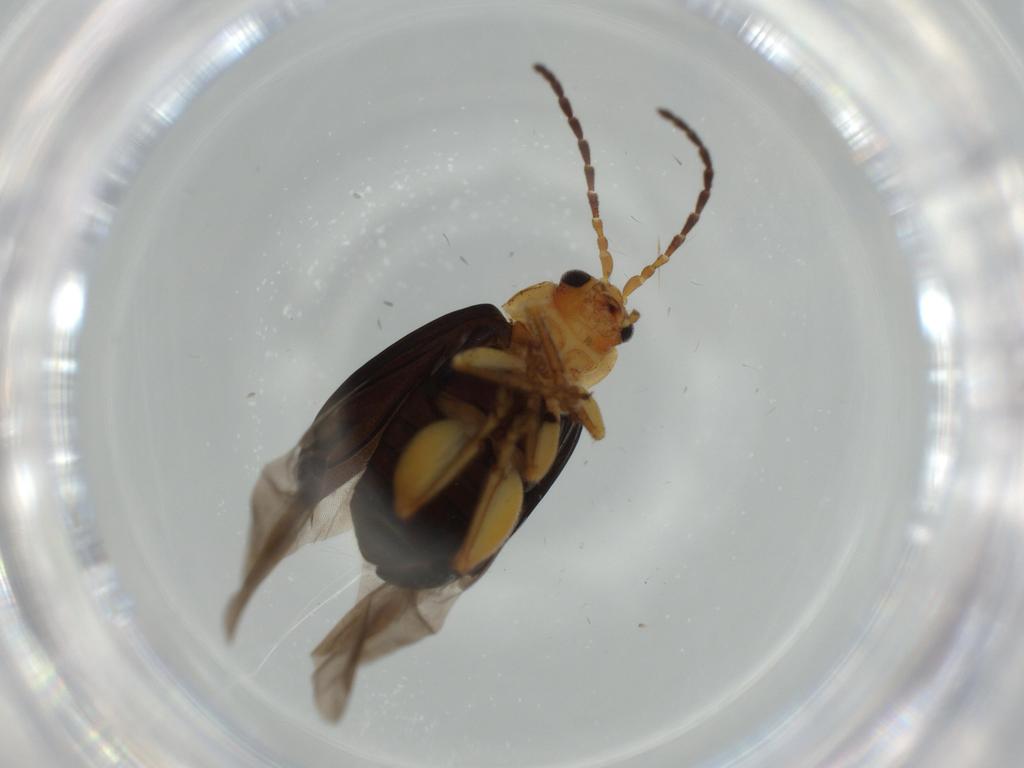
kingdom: Animalia
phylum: Arthropoda
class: Insecta
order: Coleoptera
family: Chrysomelidae
